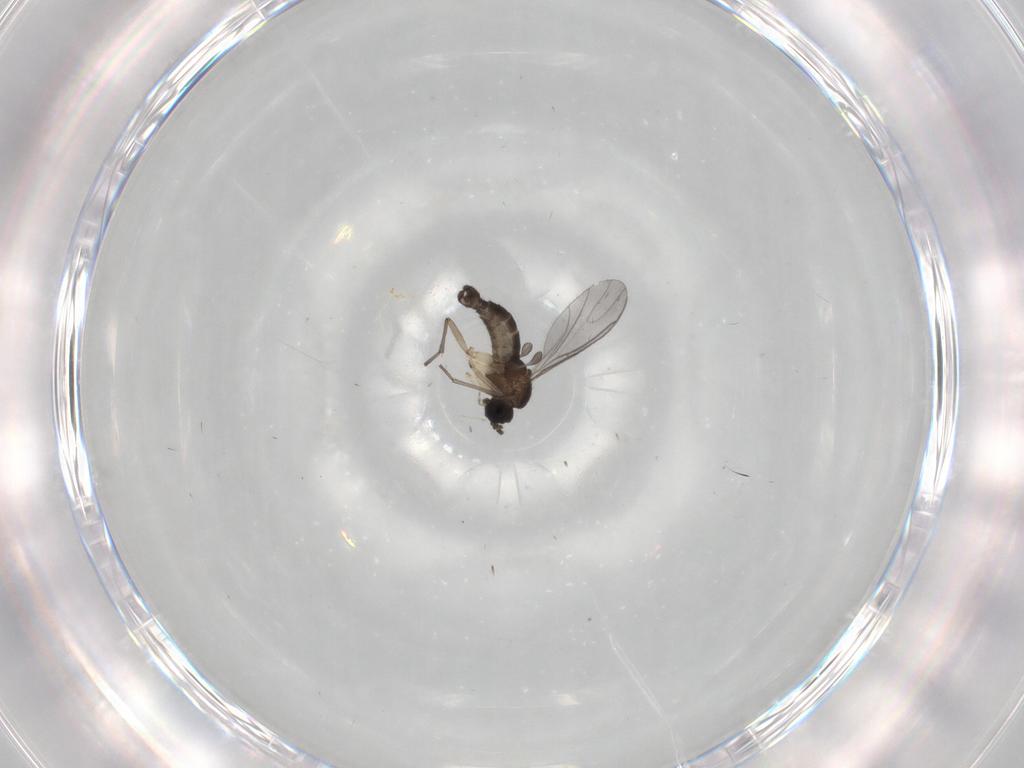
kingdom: Animalia
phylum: Arthropoda
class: Insecta
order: Diptera
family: Sciaridae
